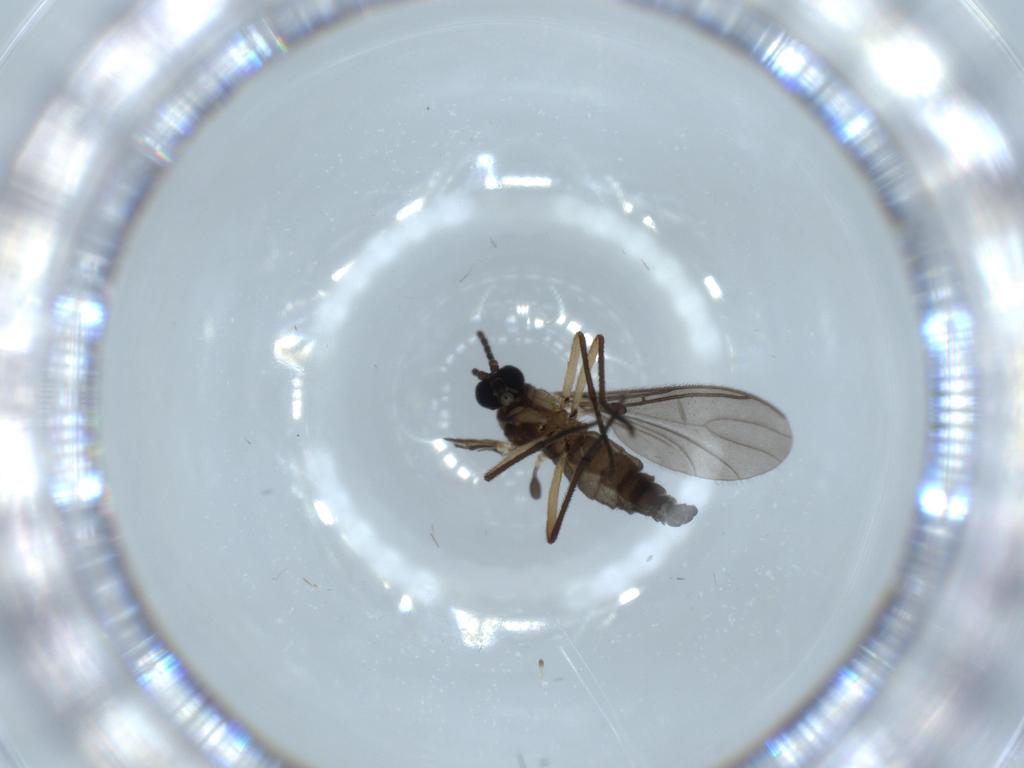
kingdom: Animalia
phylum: Arthropoda
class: Insecta
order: Diptera
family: Sciaridae
